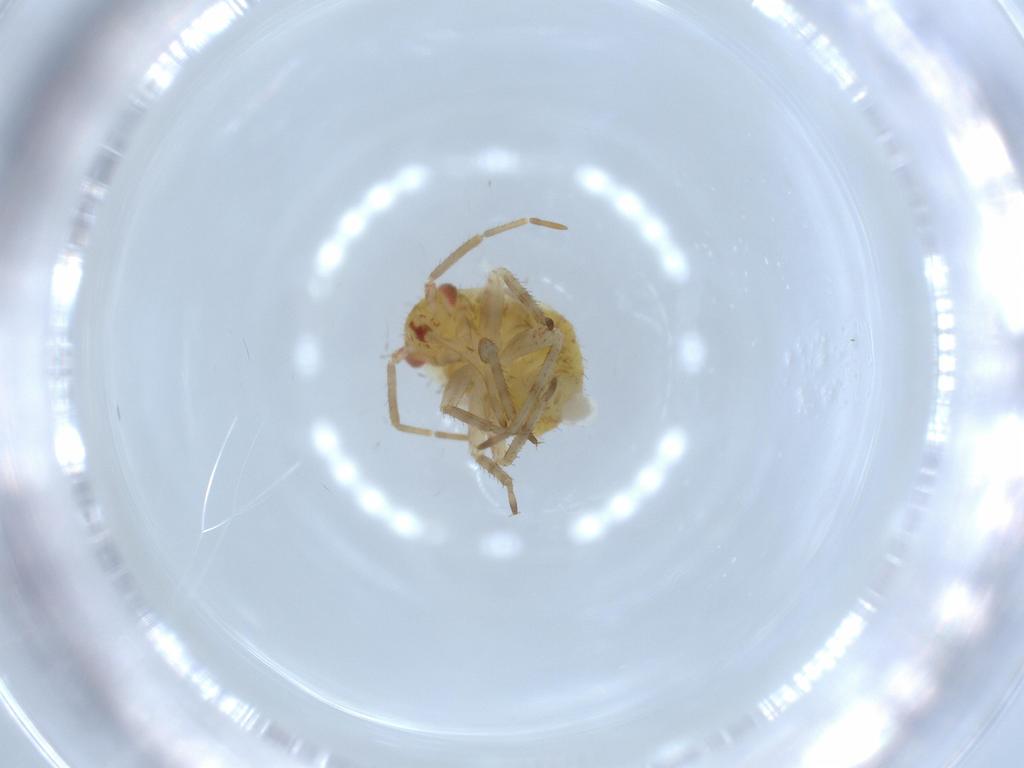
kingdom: Animalia
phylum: Arthropoda
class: Insecta
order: Hemiptera
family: Miridae
